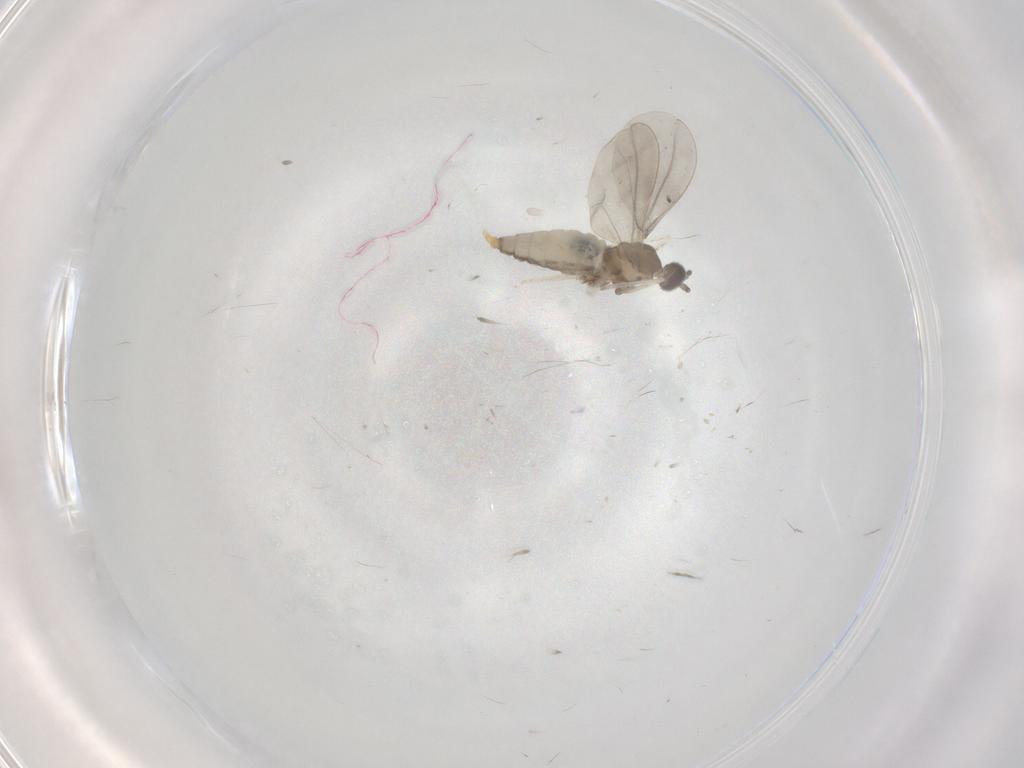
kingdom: Animalia
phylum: Arthropoda
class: Insecta
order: Diptera
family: Cecidomyiidae
